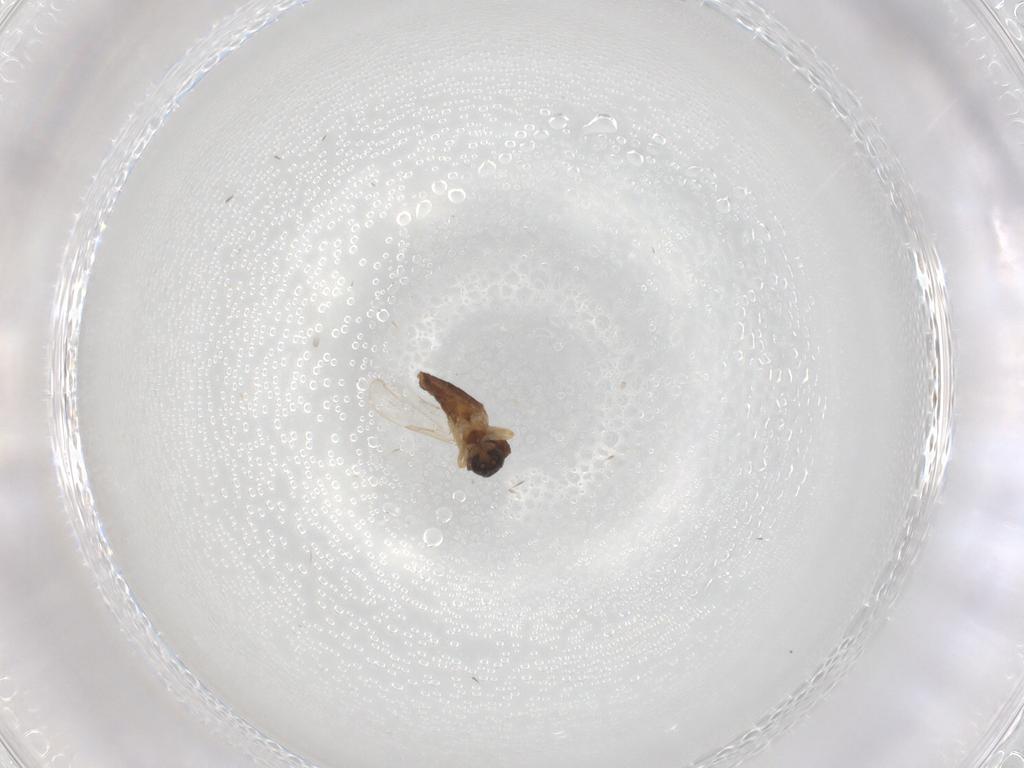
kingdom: Animalia
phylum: Arthropoda
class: Insecta
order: Diptera
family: Ceratopogonidae
